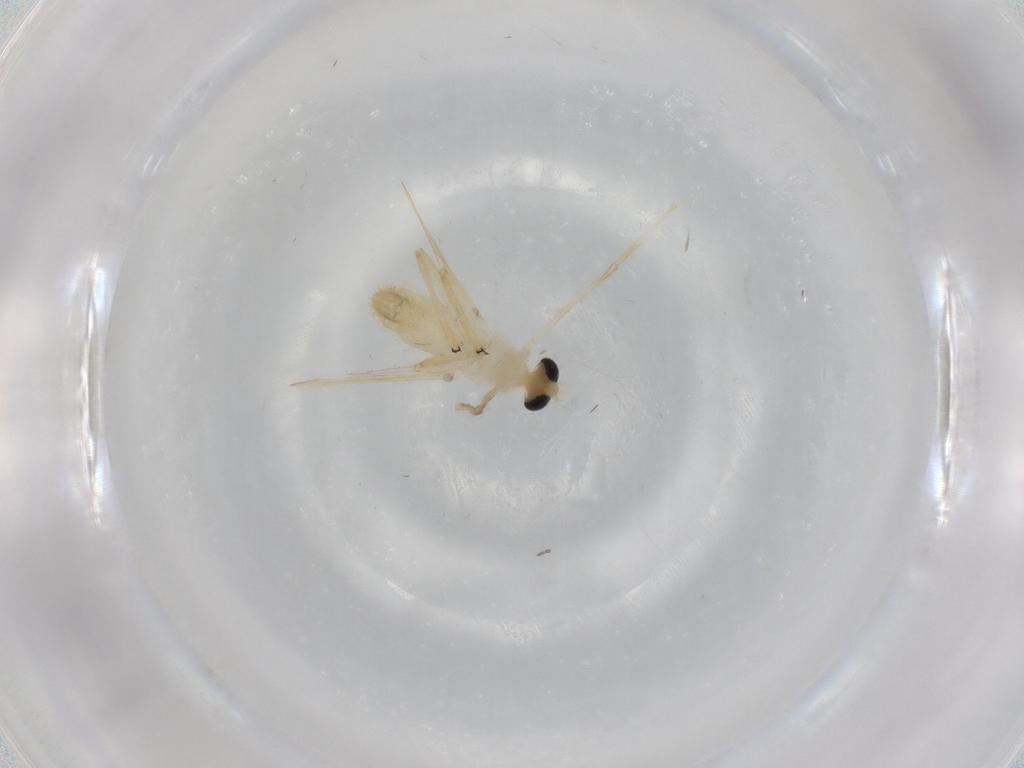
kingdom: Animalia
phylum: Arthropoda
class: Insecta
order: Diptera
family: Chironomidae
